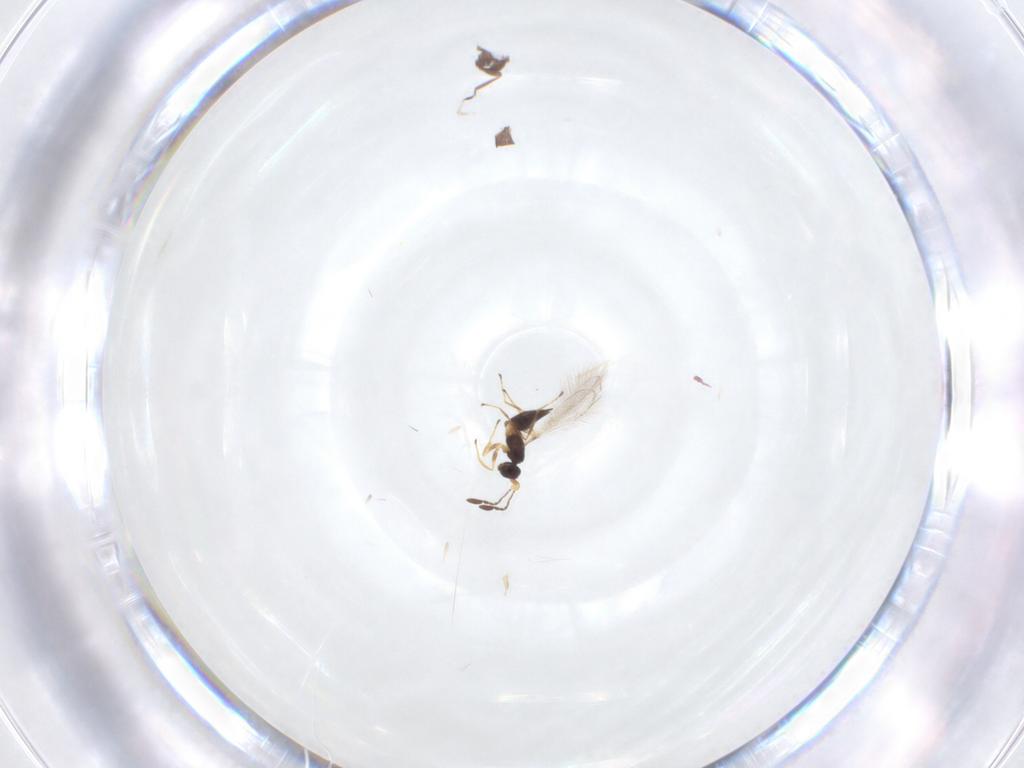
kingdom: Animalia
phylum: Arthropoda
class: Insecta
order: Hymenoptera
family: Mymaridae
